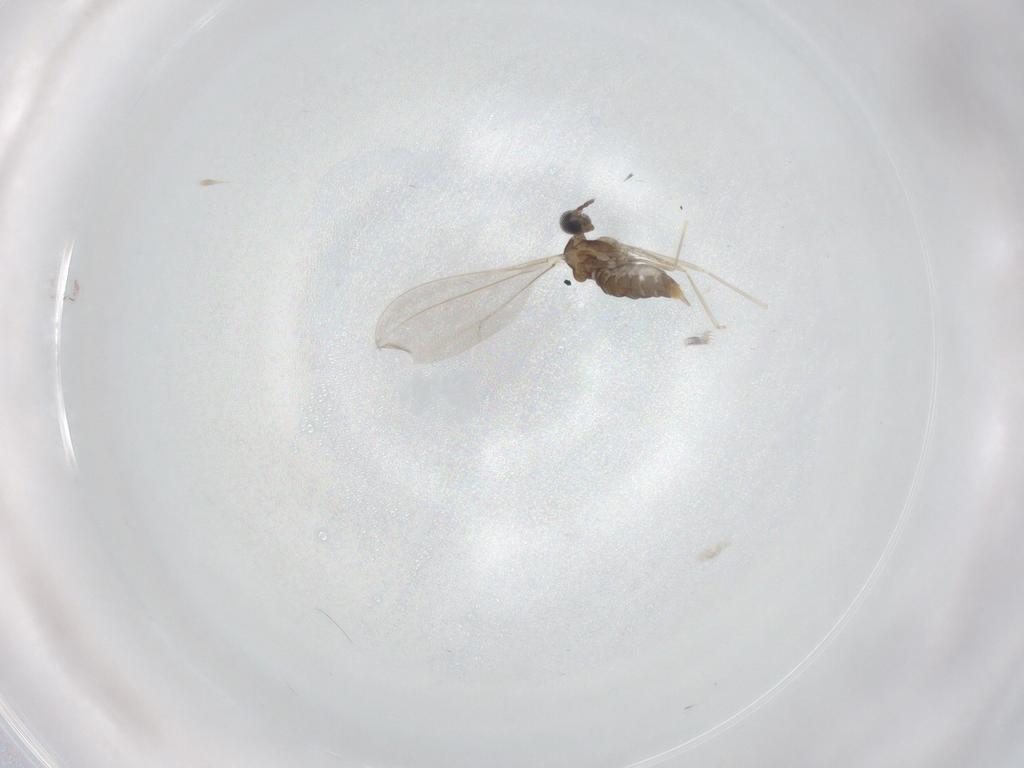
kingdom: Animalia
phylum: Arthropoda
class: Insecta
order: Diptera
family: Cecidomyiidae
